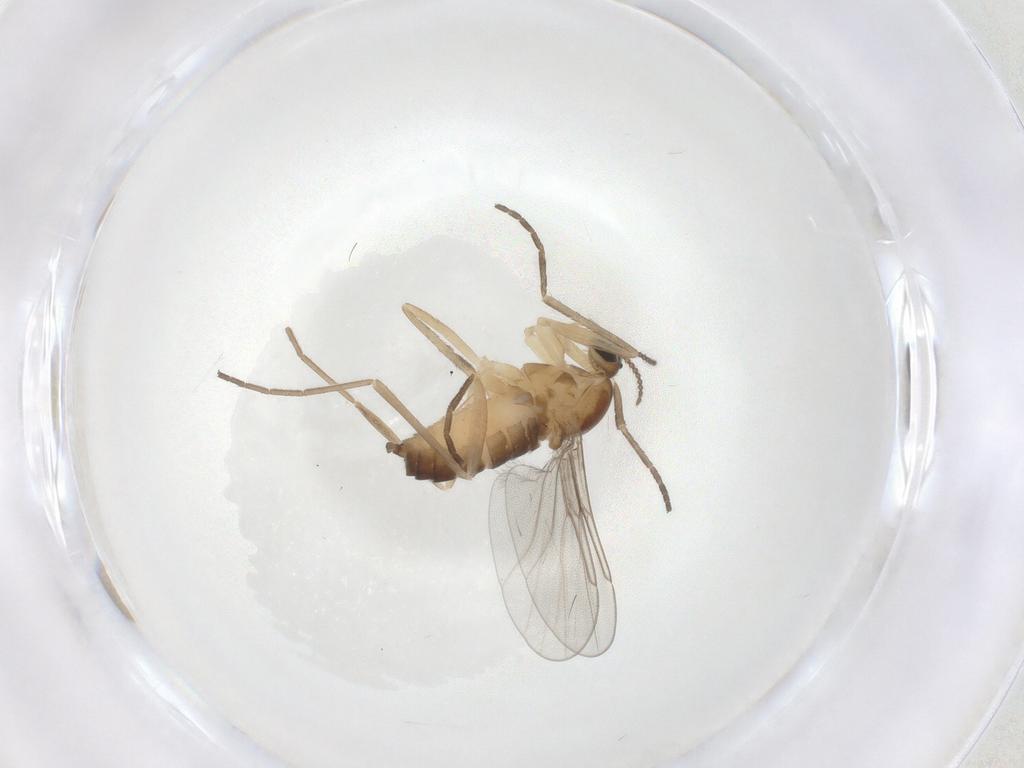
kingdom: Animalia
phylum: Arthropoda
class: Insecta
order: Diptera
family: Cecidomyiidae
